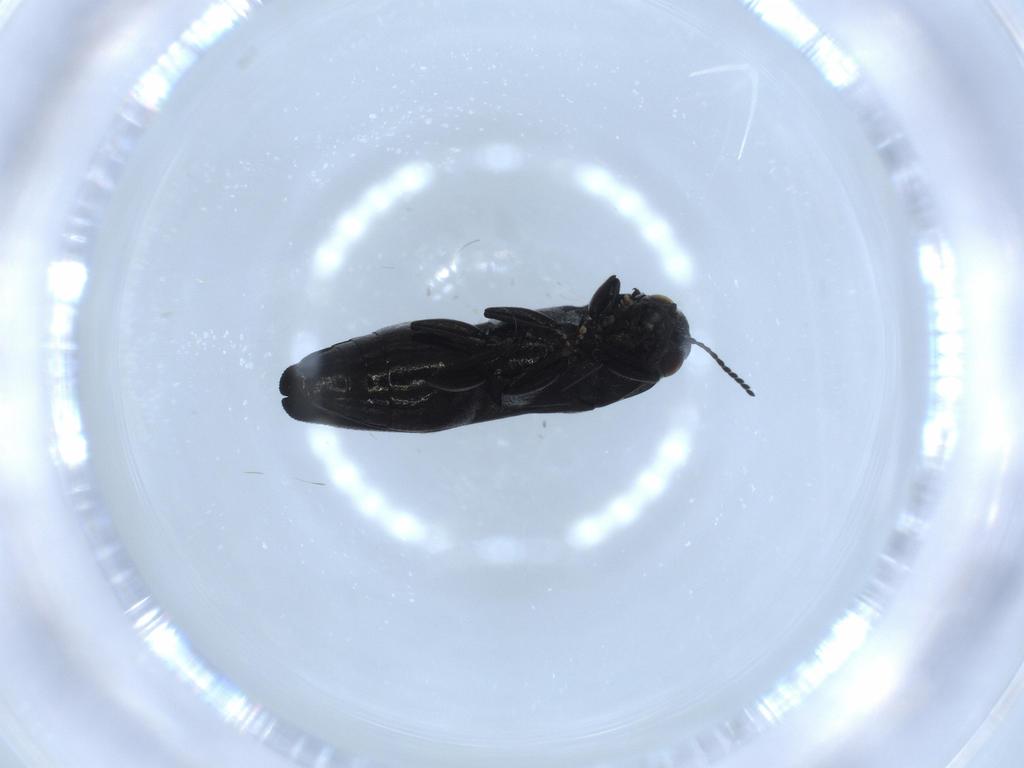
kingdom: Animalia
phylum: Arthropoda
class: Insecta
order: Coleoptera
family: Buprestidae
